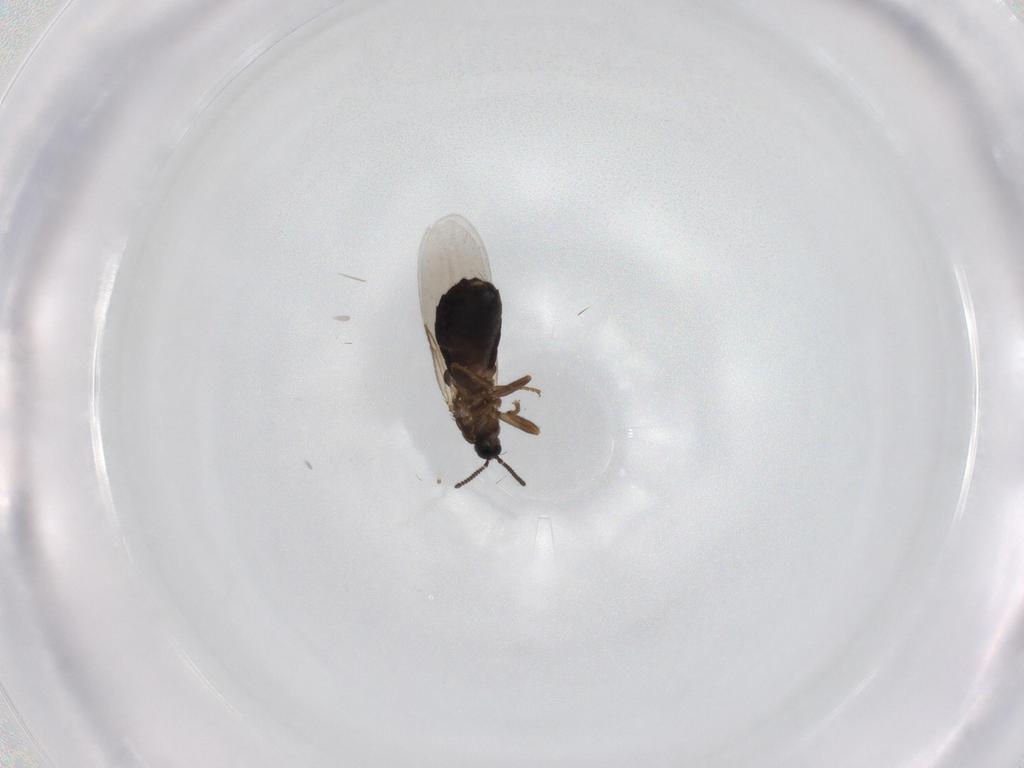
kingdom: Animalia
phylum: Arthropoda
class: Insecta
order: Diptera
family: Scatopsidae
